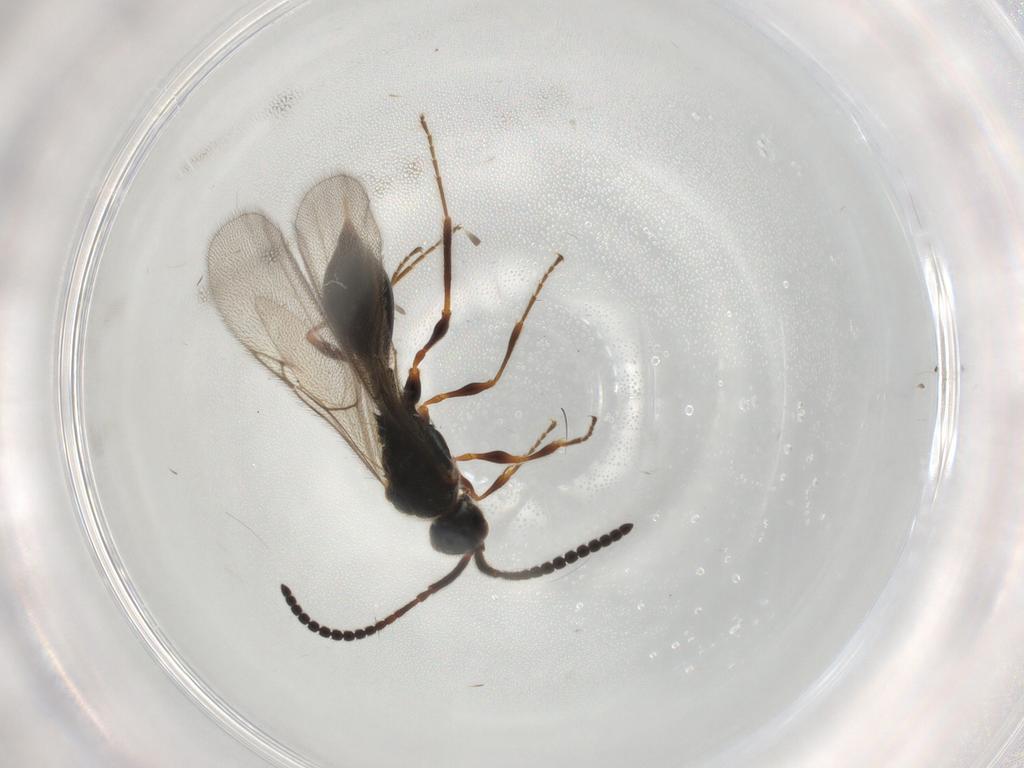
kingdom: Animalia
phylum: Arthropoda
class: Insecta
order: Hymenoptera
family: Diapriidae
